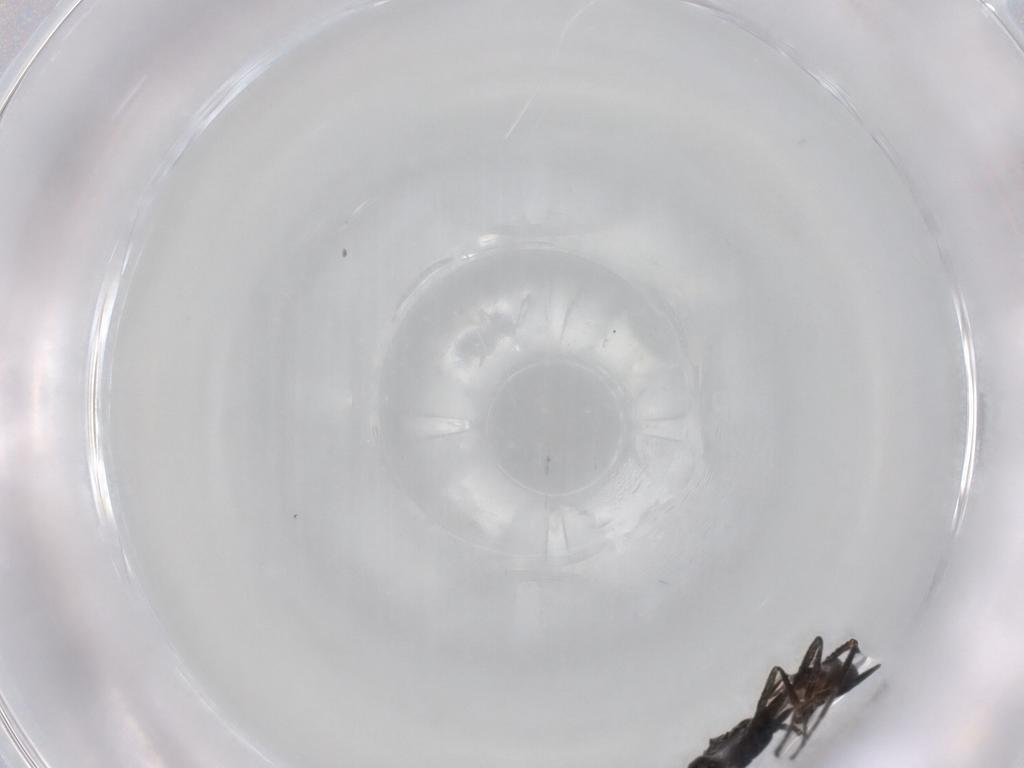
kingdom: Animalia
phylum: Arthropoda
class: Insecta
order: Hymenoptera
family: Braconidae
